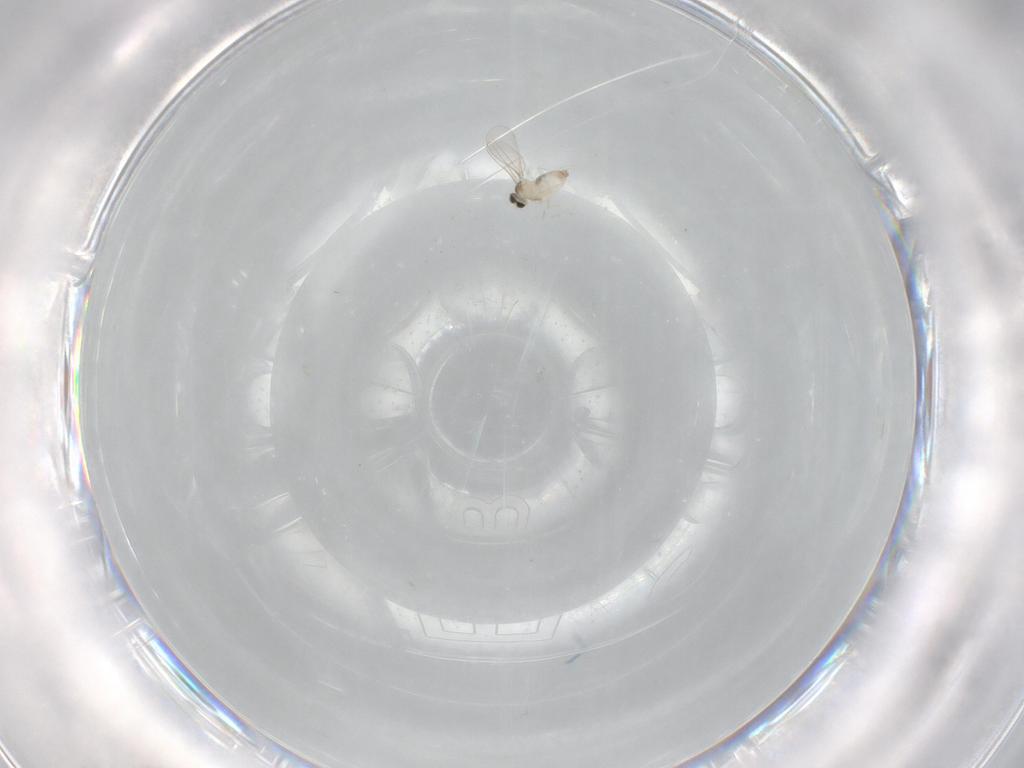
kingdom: Animalia
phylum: Arthropoda
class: Insecta
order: Diptera
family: Cecidomyiidae
